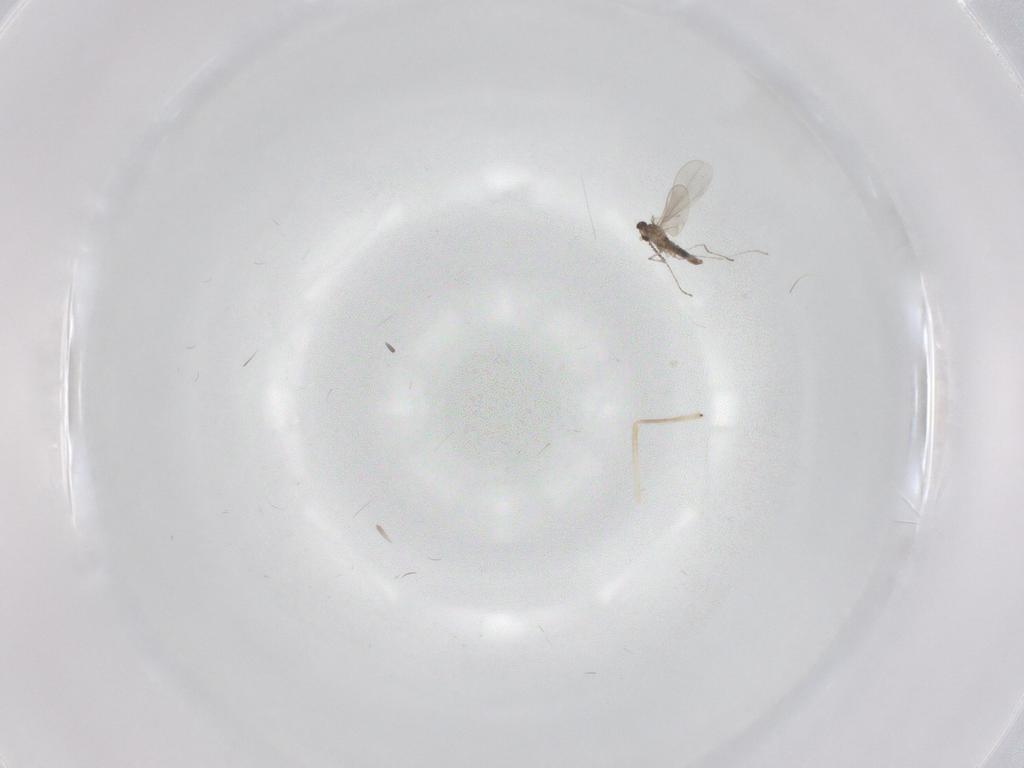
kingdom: Animalia
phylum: Arthropoda
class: Insecta
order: Diptera
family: Cecidomyiidae
